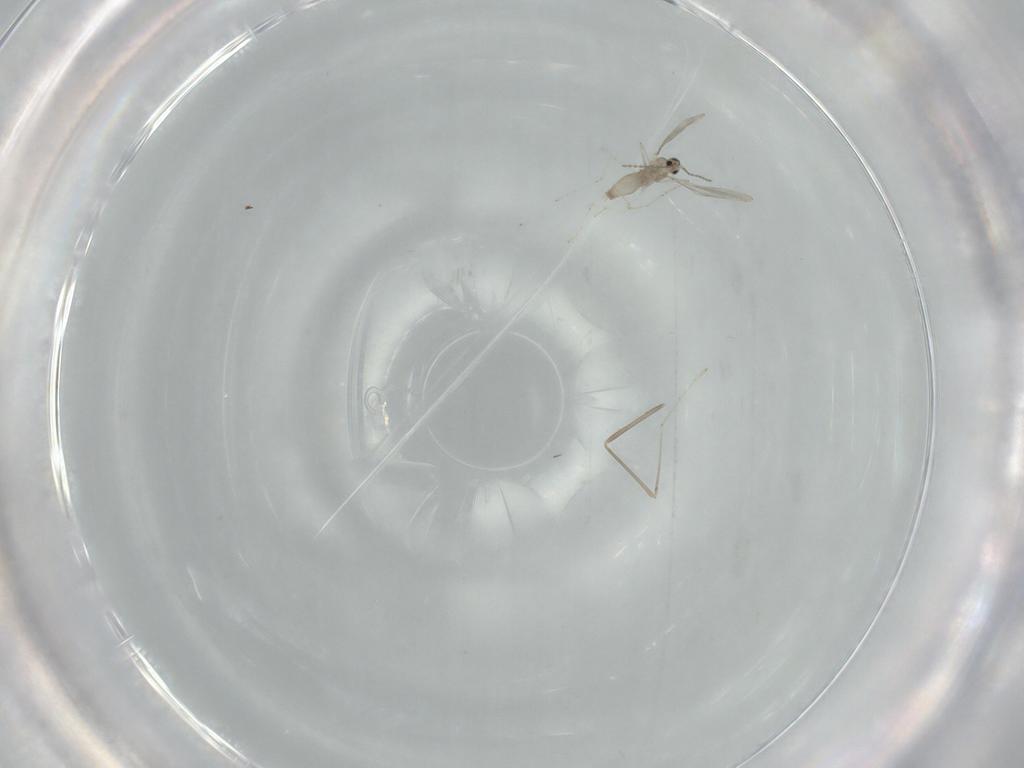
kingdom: Animalia
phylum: Arthropoda
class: Insecta
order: Diptera
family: Cecidomyiidae
